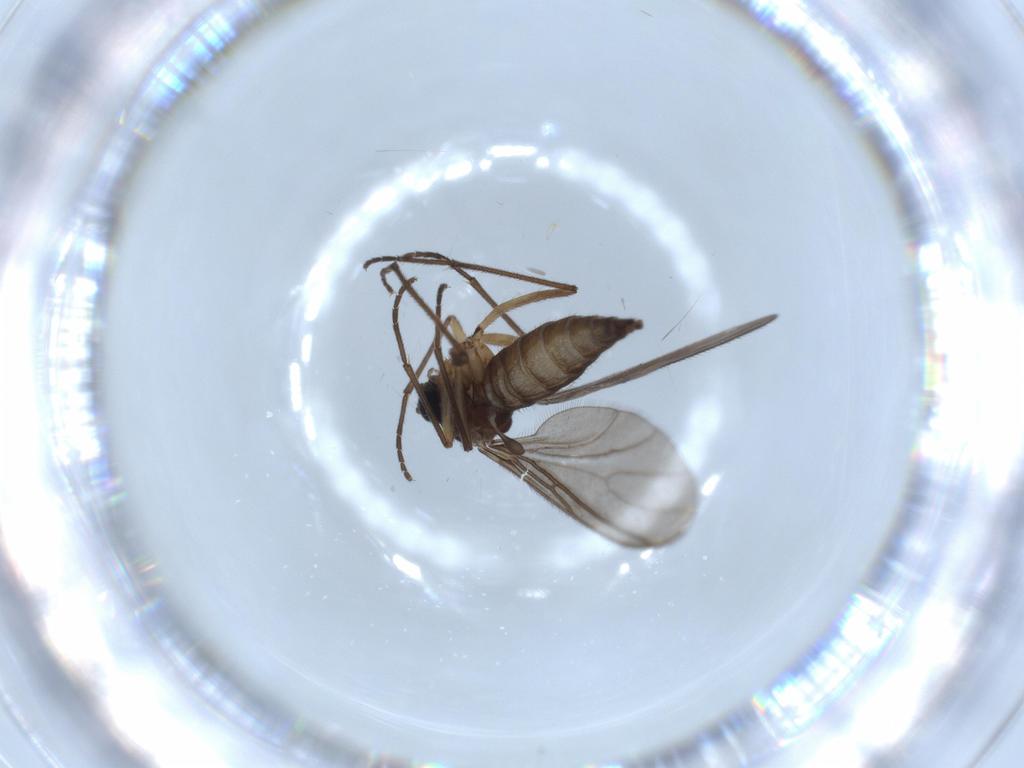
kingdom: Animalia
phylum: Arthropoda
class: Insecta
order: Diptera
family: Sciaridae
